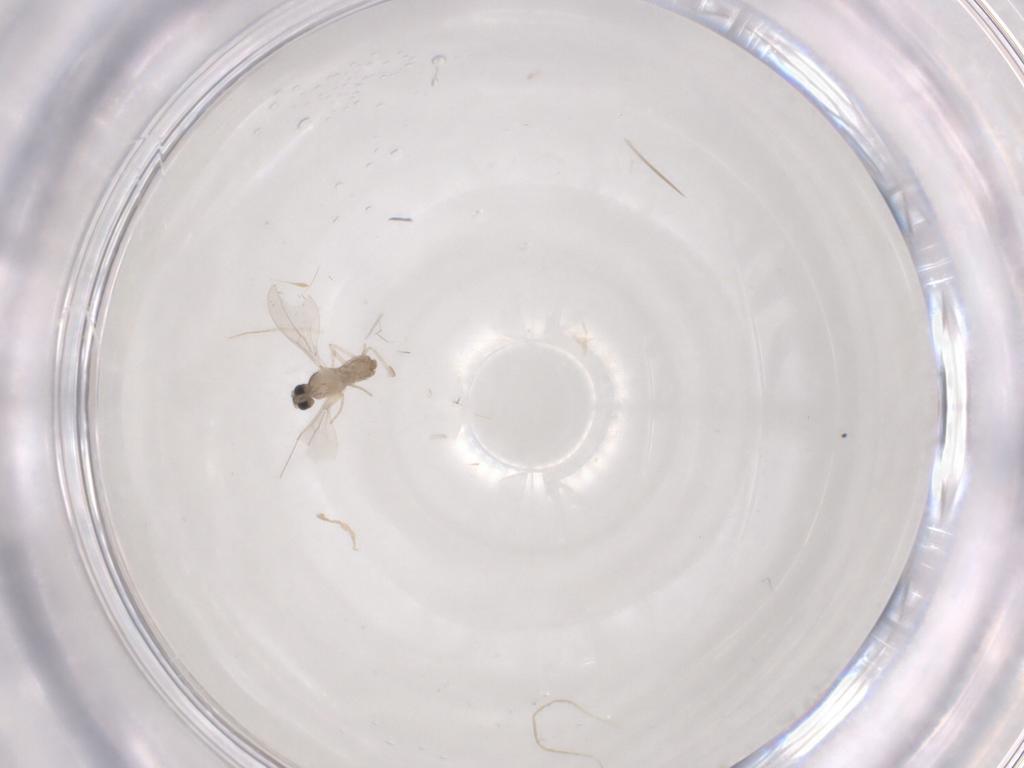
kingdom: Animalia
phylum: Arthropoda
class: Insecta
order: Diptera
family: Cecidomyiidae
